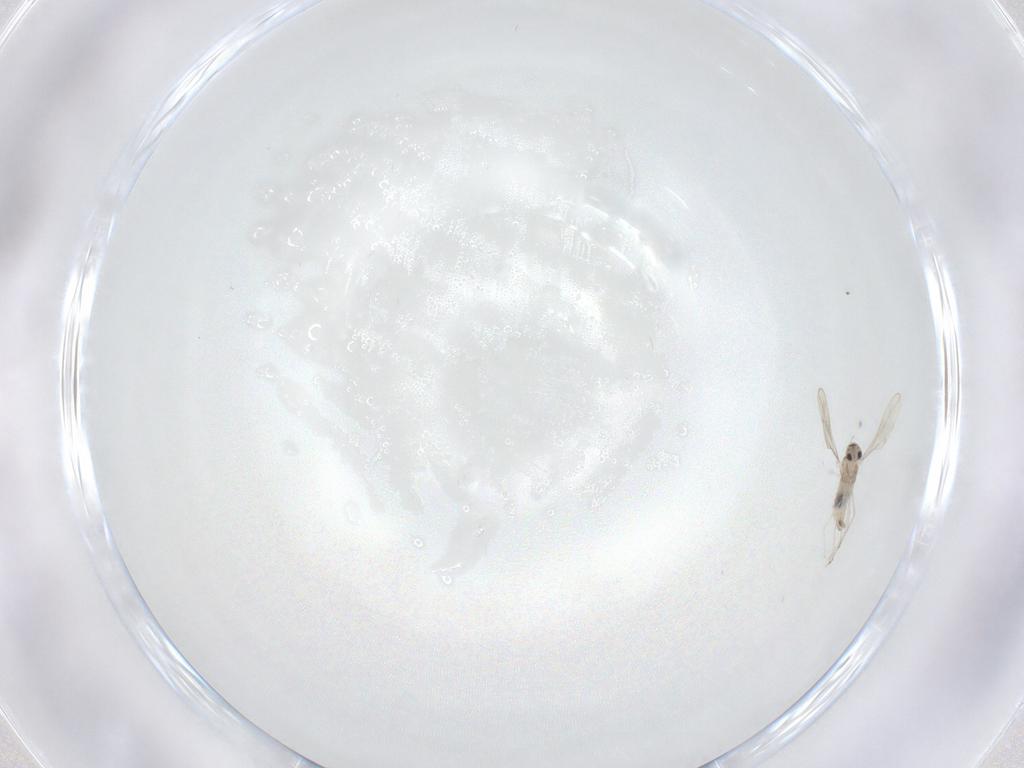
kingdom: Animalia
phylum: Arthropoda
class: Insecta
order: Diptera
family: Cecidomyiidae
